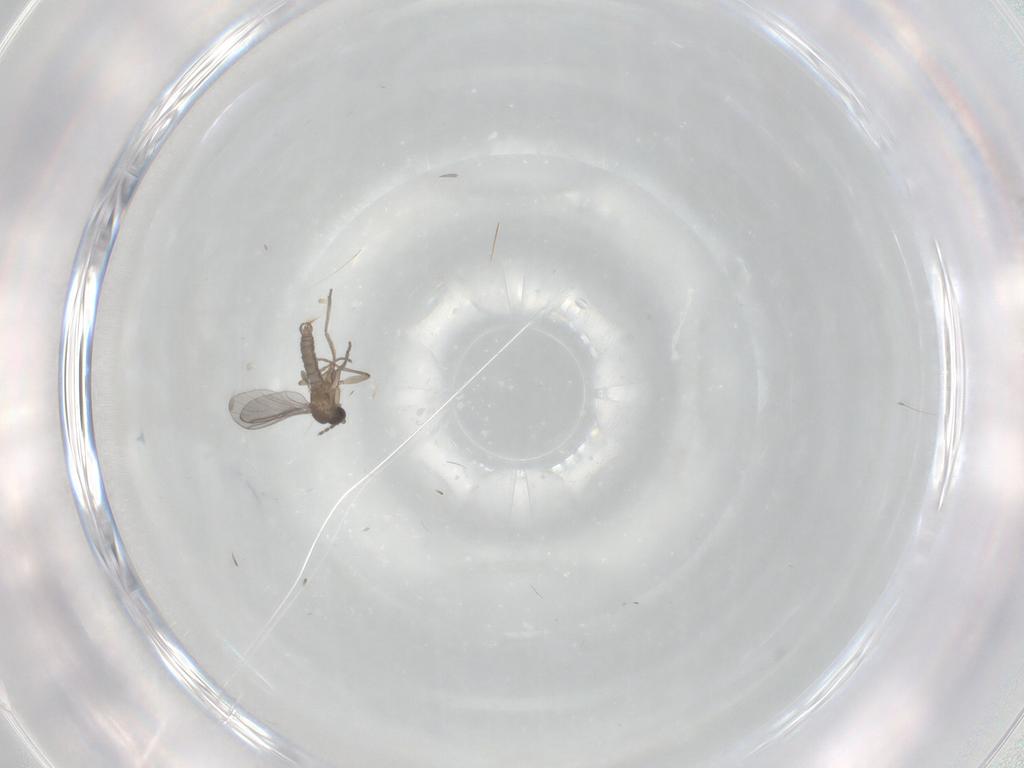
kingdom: Animalia
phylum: Arthropoda
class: Insecta
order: Diptera
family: Sciaridae
